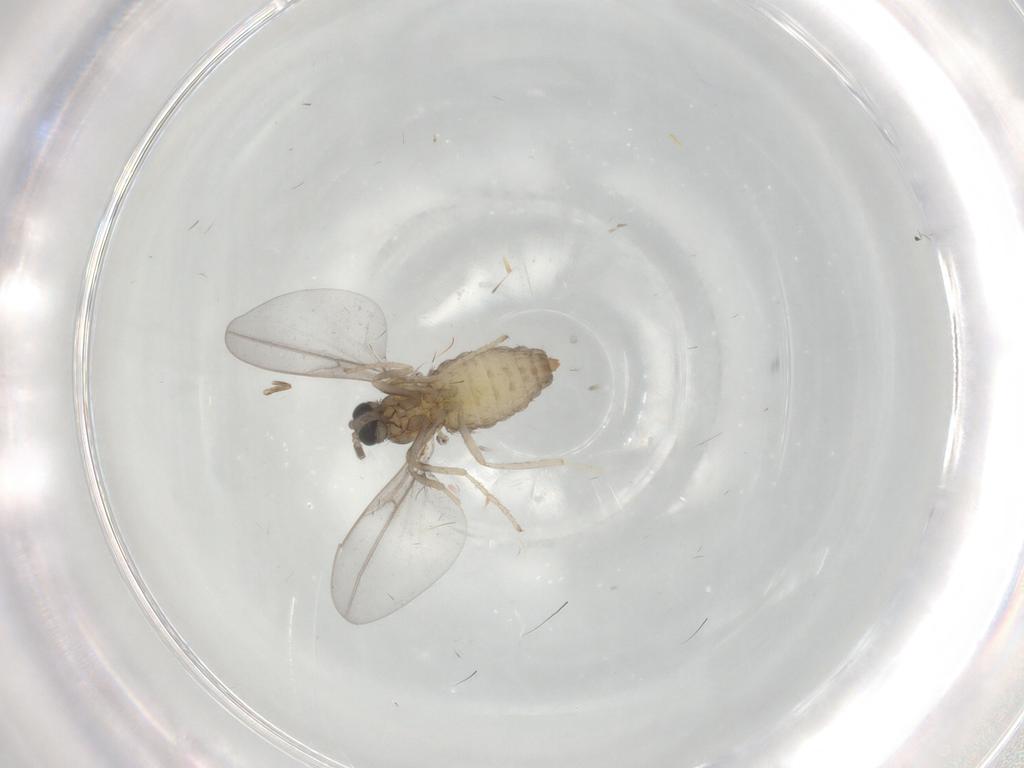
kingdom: Animalia
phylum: Arthropoda
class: Insecta
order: Diptera
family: Cecidomyiidae
